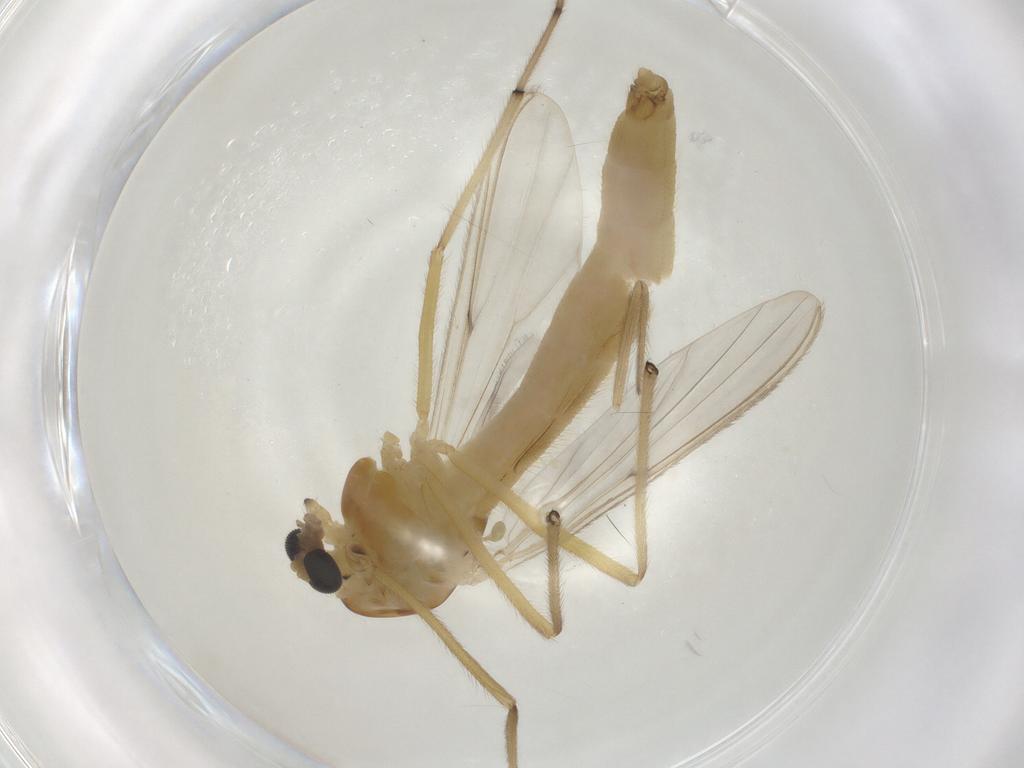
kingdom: Animalia
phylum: Arthropoda
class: Insecta
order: Diptera
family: Chironomidae
